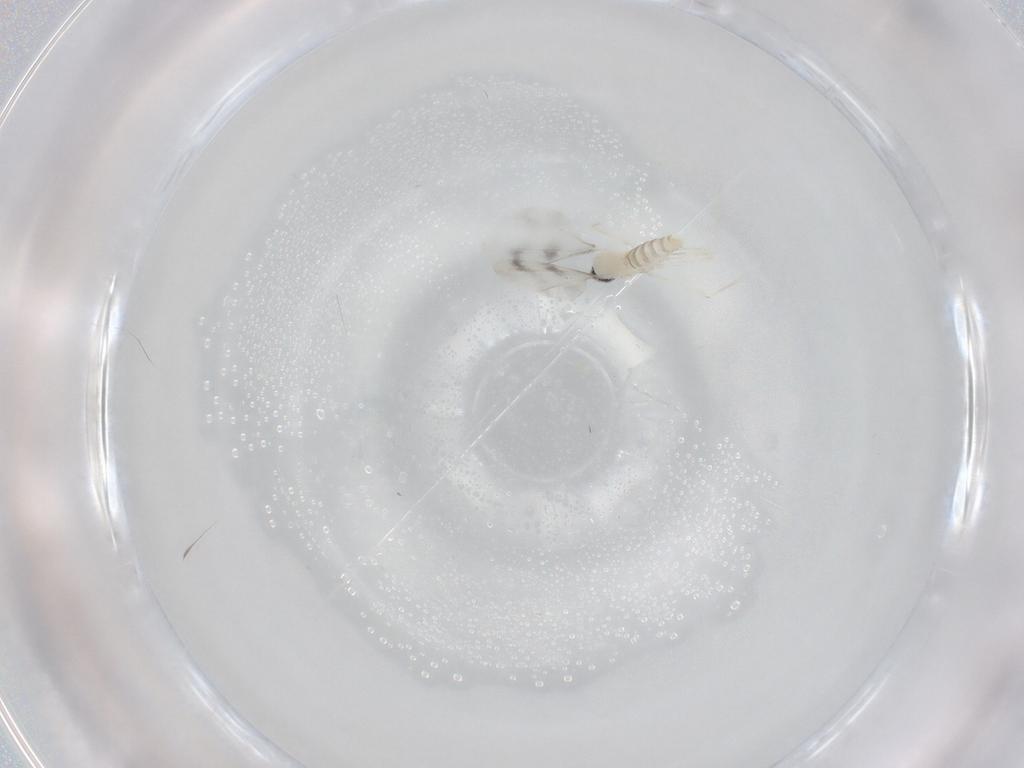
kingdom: Animalia
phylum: Arthropoda
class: Insecta
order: Diptera
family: Cecidomyiidae
